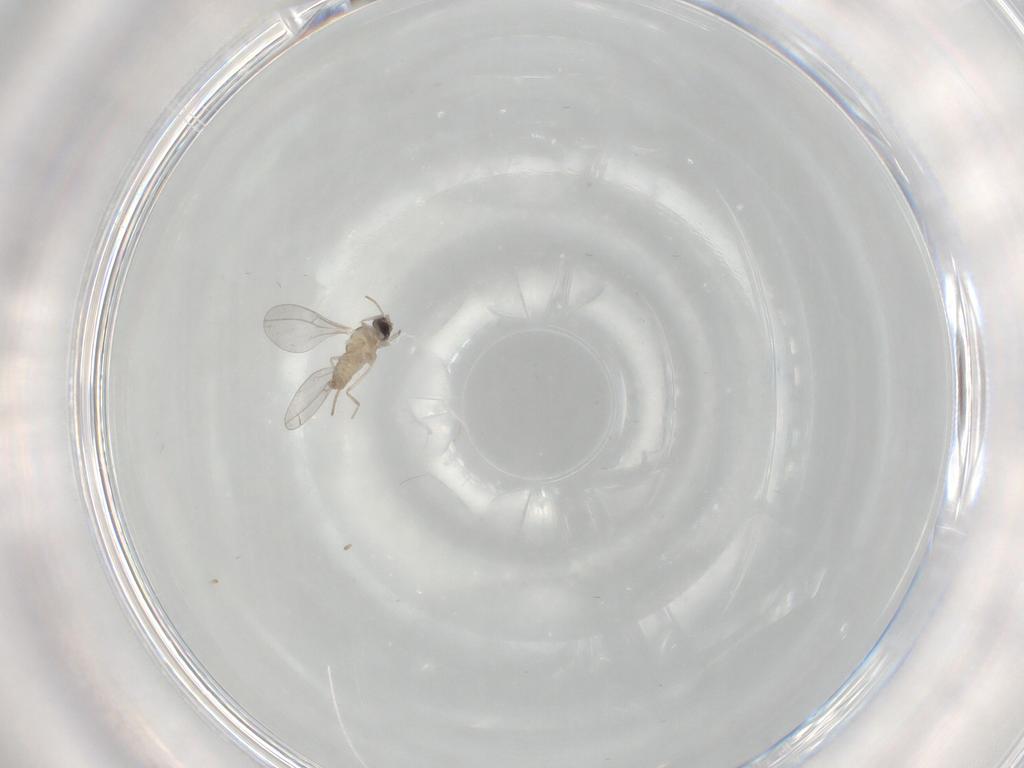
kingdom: Animalia
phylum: Arthropoda
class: Insecta
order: Diptera
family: Cecidomyiidae
